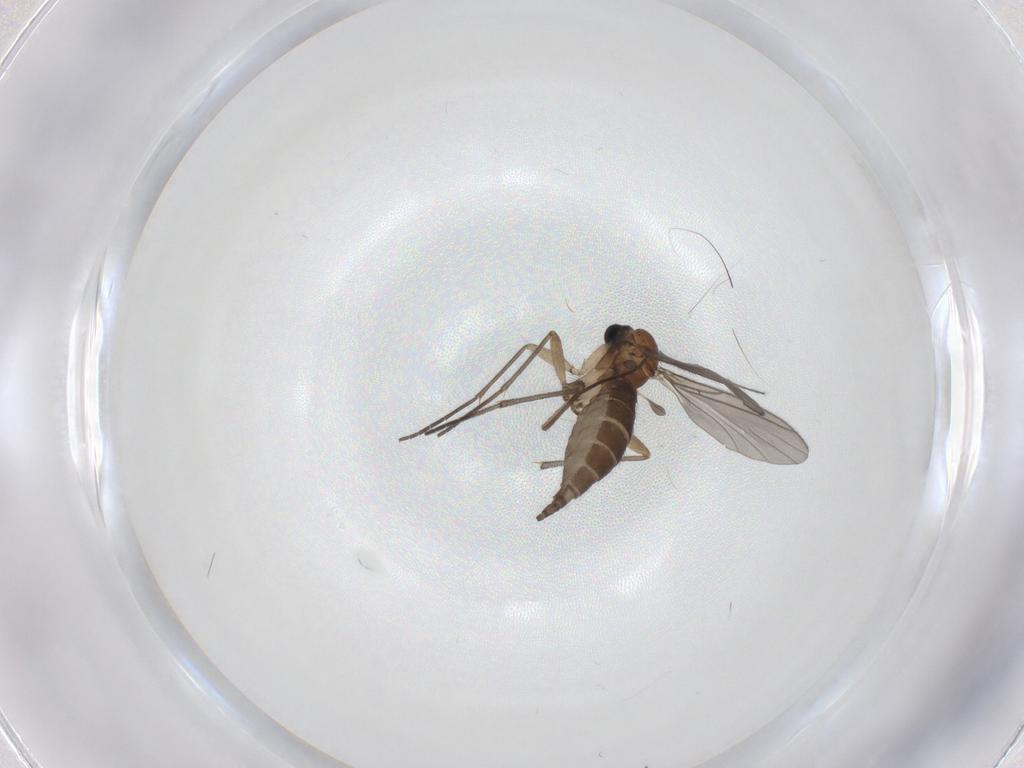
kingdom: Animalia
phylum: Arthropoda
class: Insecta
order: Diptera
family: Sciaridae
